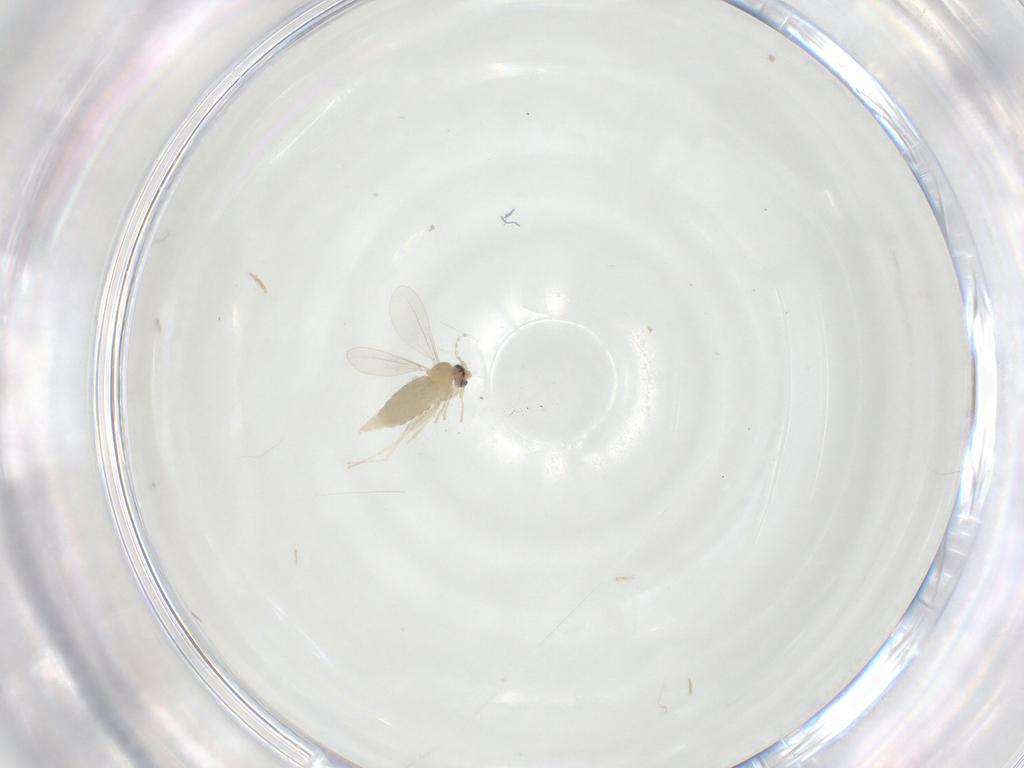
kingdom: Animalia
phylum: Arthropoda
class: Insecta
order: Diptera
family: Cecidomyiidae
